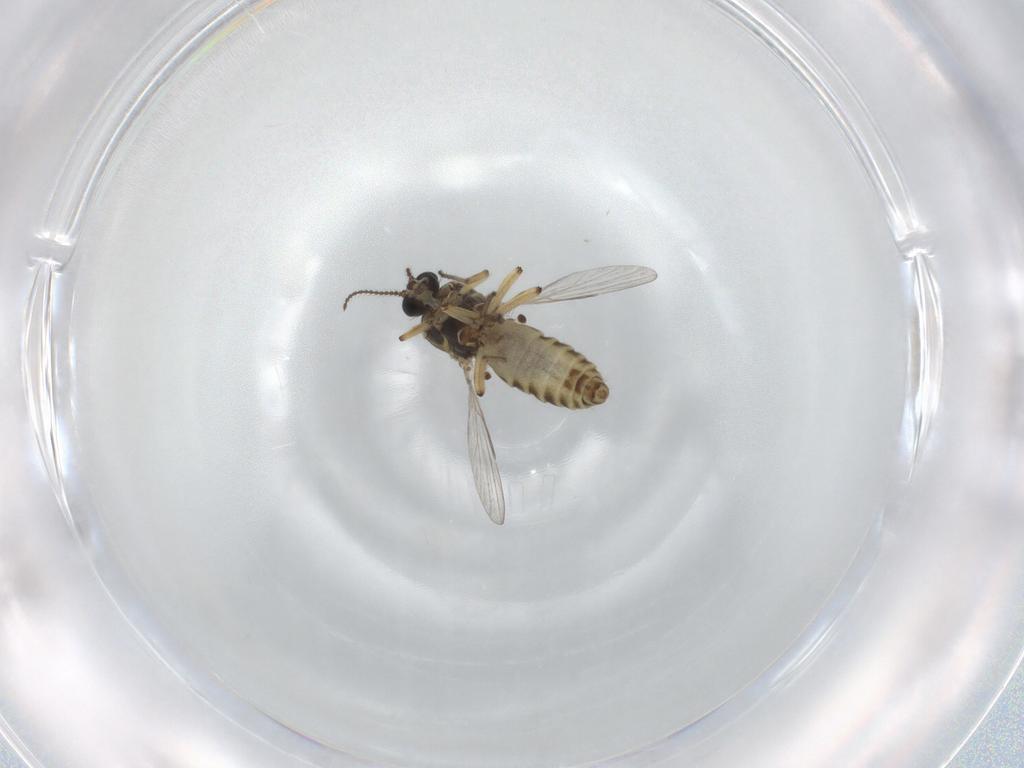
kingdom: Animalia
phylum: Arthropoda
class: Insecta
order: Diptera
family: Ceratopogonidae
